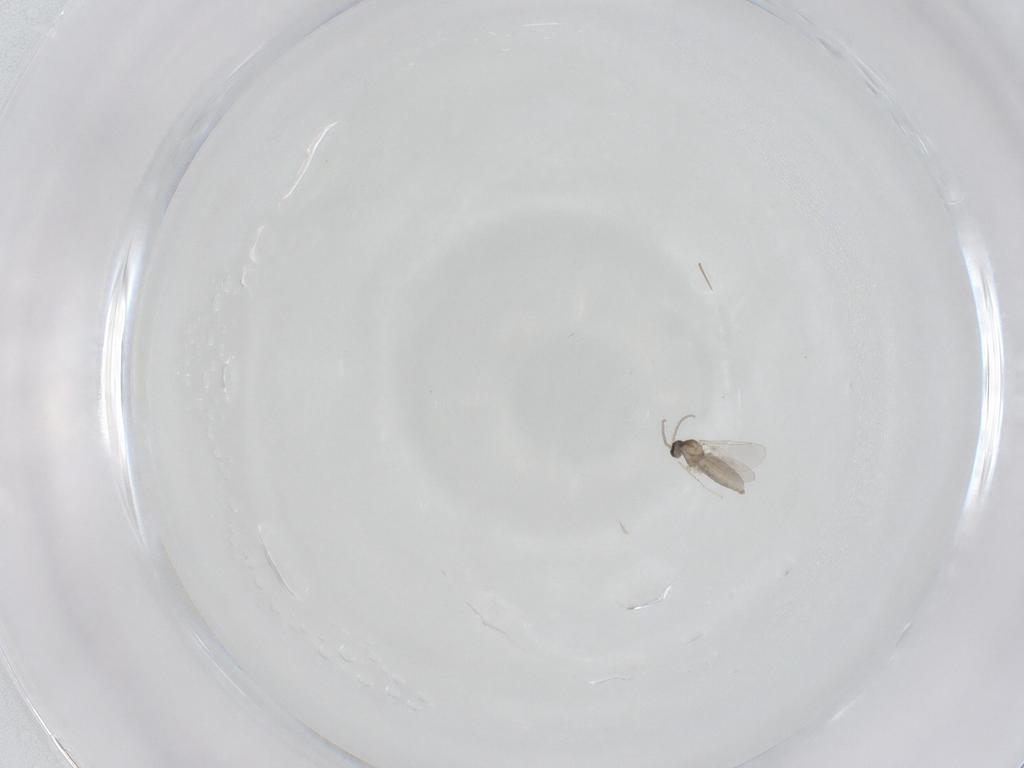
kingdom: Animalia
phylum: Arthropoda
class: Insecta
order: Diptera
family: Cecidomyiidae
